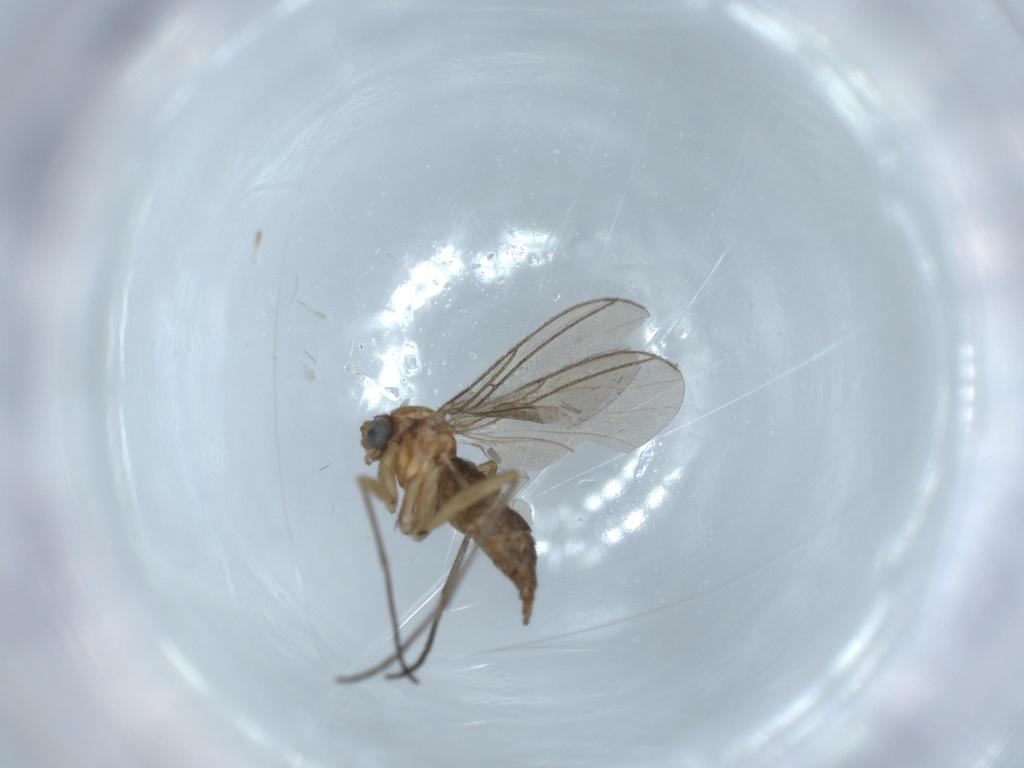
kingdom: Animalia
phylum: Arthropoda
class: Insecta
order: Diptera
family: Sciaridae
